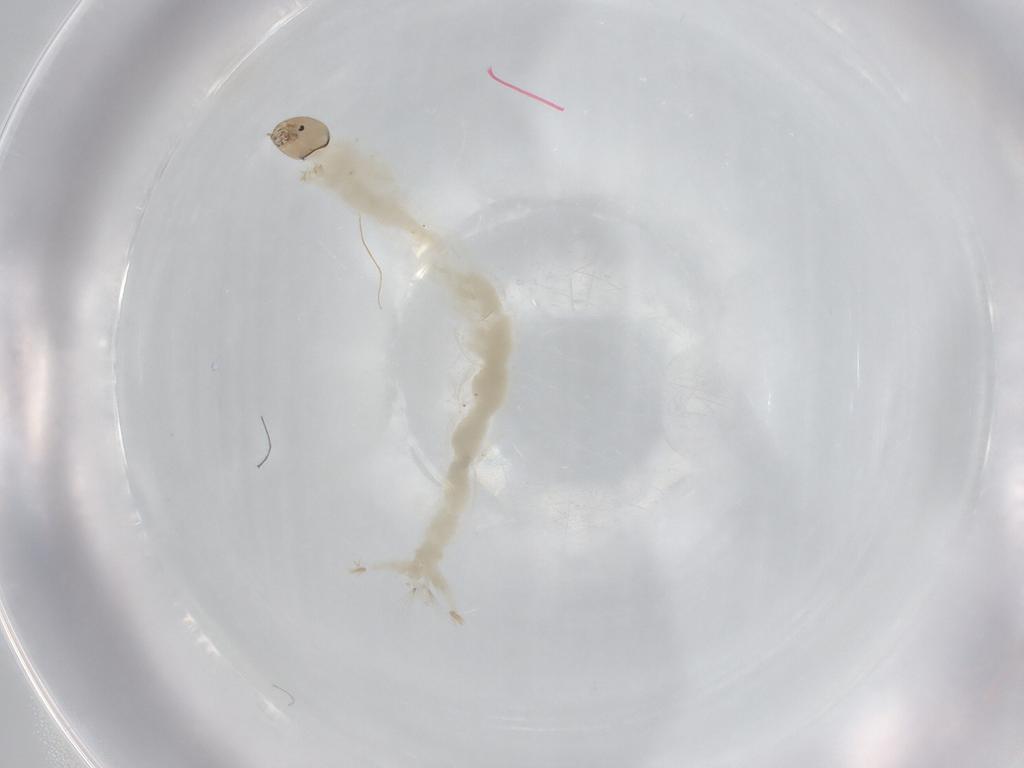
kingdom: Animalia
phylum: Arthropoda
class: Insecta
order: Diptera
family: Chironomidae
